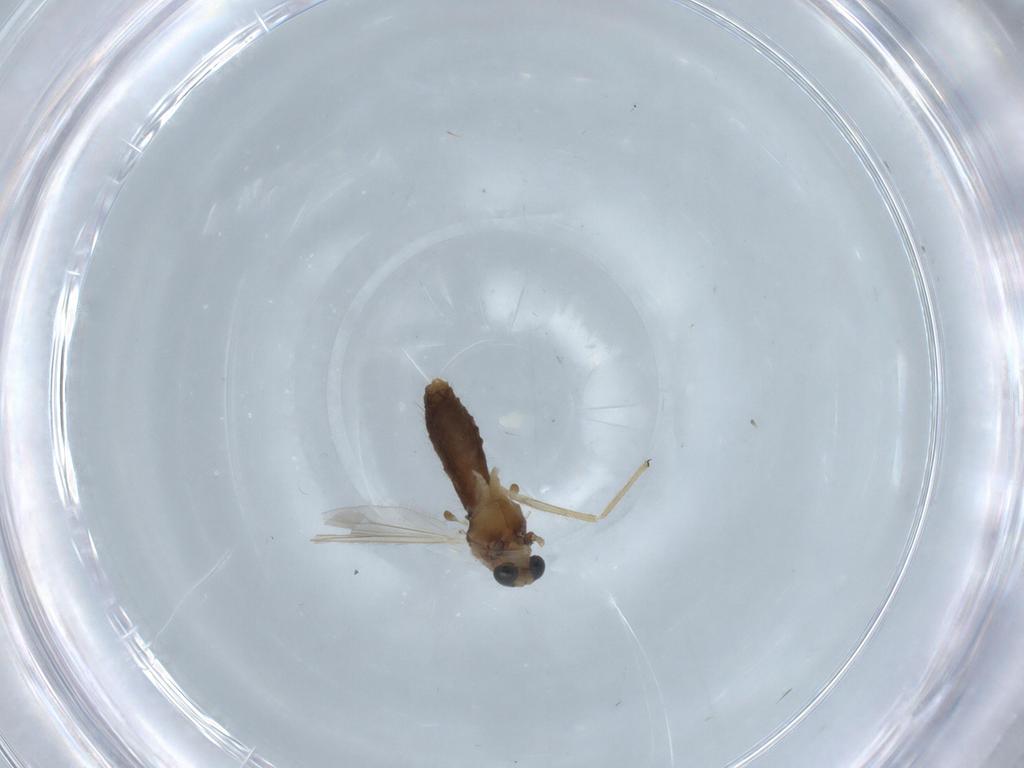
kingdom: Animalia
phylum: Arthropoda
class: Insecta
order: Diptera
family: Chironomidae
